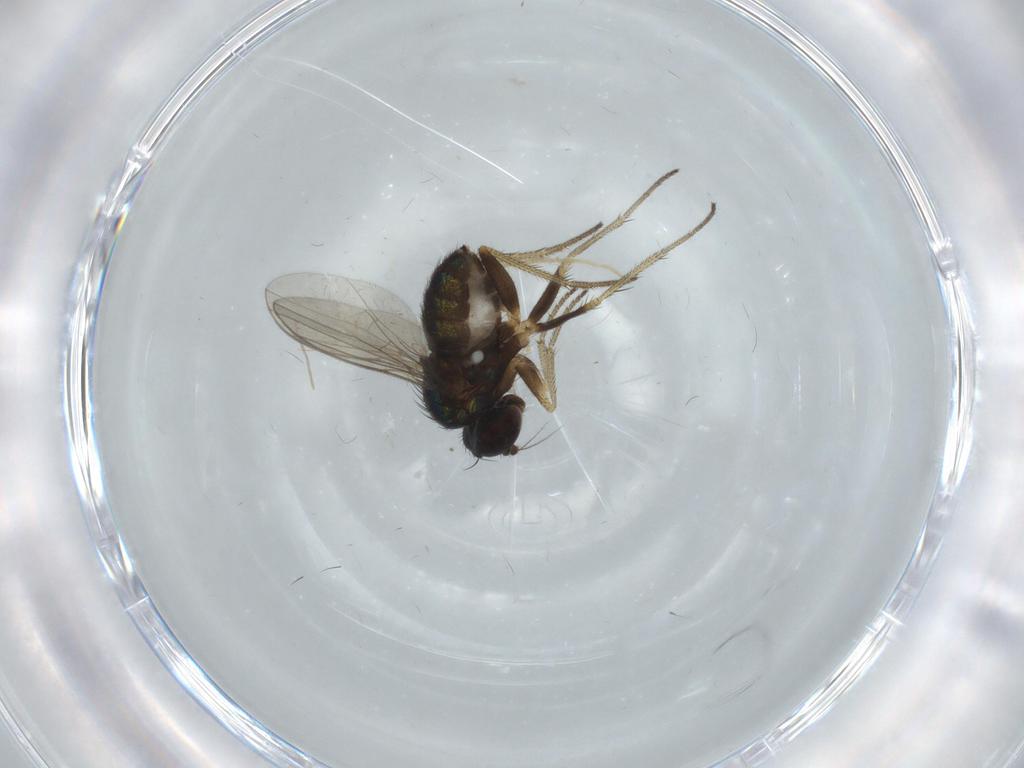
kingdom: Animalia
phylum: Arthropoda
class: Insecta
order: Diptera
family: Dolichopodidae
